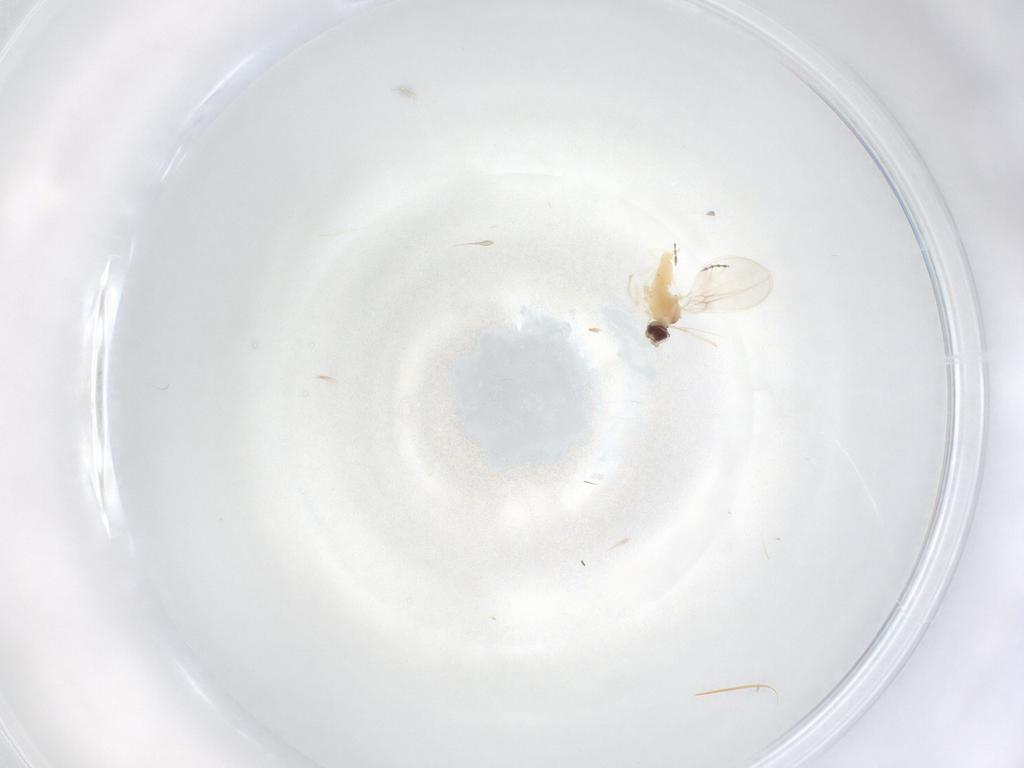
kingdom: Animalia
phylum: Arthropoda
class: Insecta
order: Diptera
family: Cecidomyiidae
